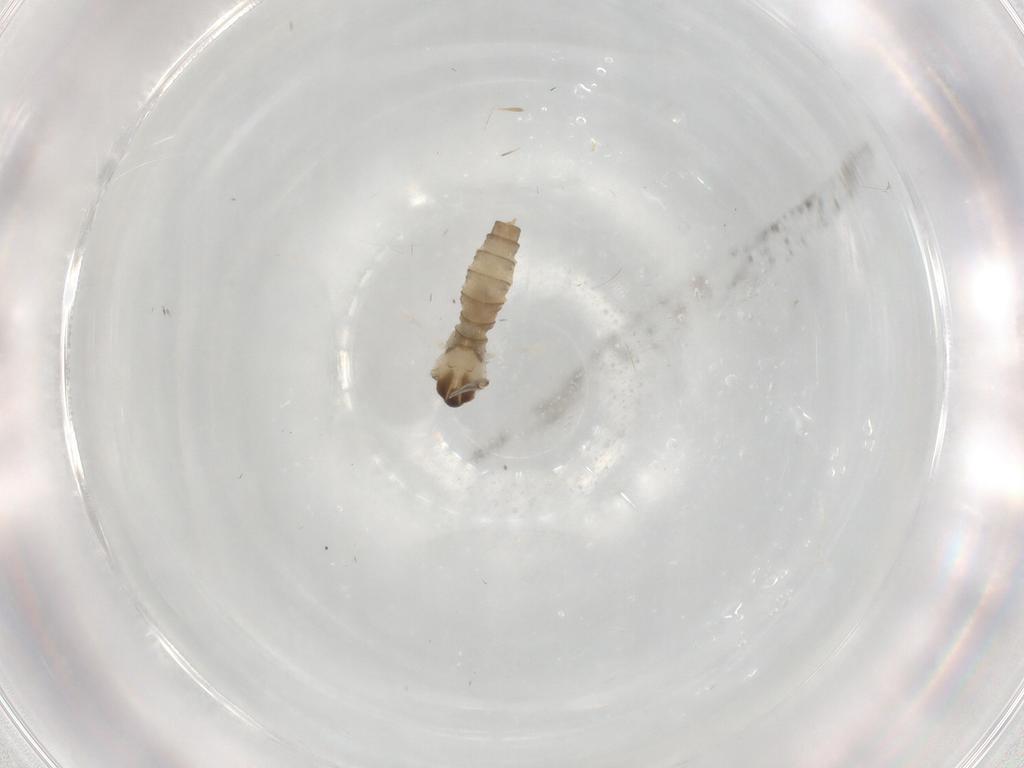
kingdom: Animalia
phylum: Arthropoda
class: Insecta
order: Diptera
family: Cecidomyiidae
